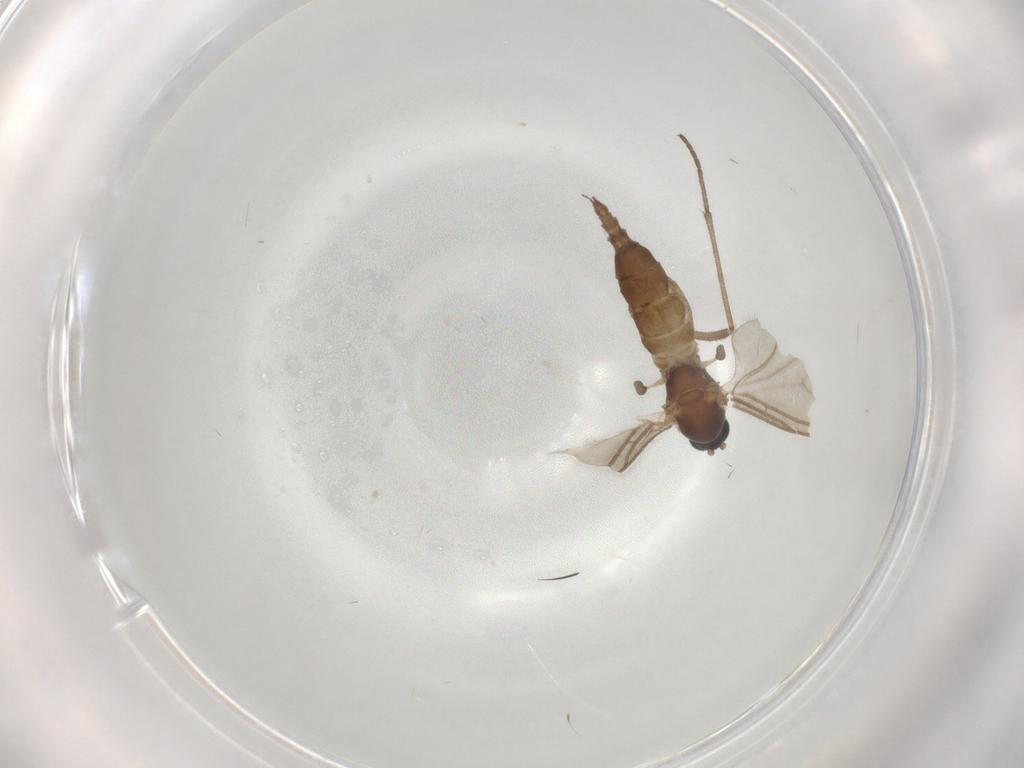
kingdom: Animalia
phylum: Arthropoda
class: Insecta
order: Diptera
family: Sciaridae
